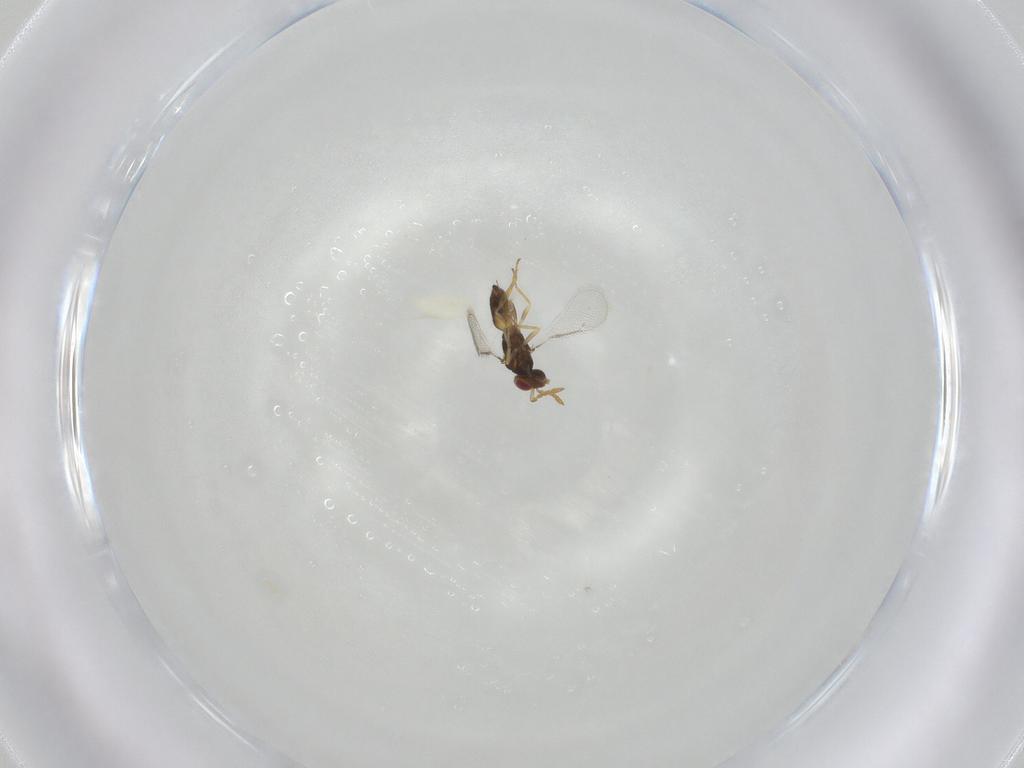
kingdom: Animalia
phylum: Arthropoda
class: Insecta
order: Hymenoptera
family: Eulophidae
